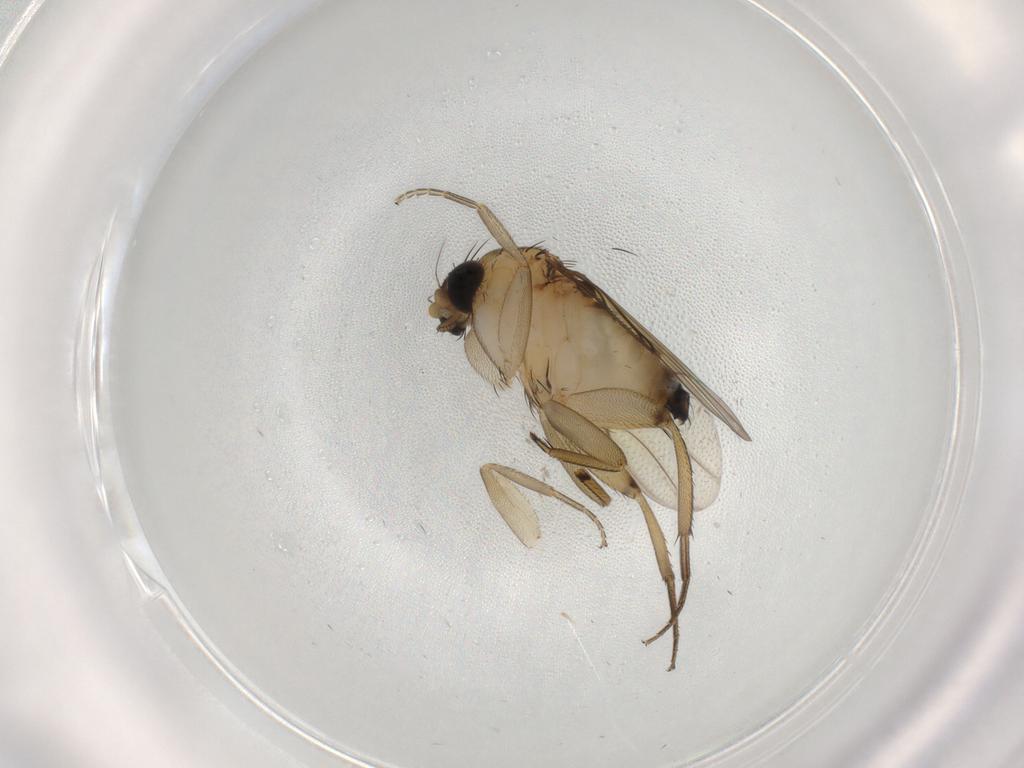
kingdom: Animalia
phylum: Arthropoda
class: Insecta
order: Diptera
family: Phoridae
